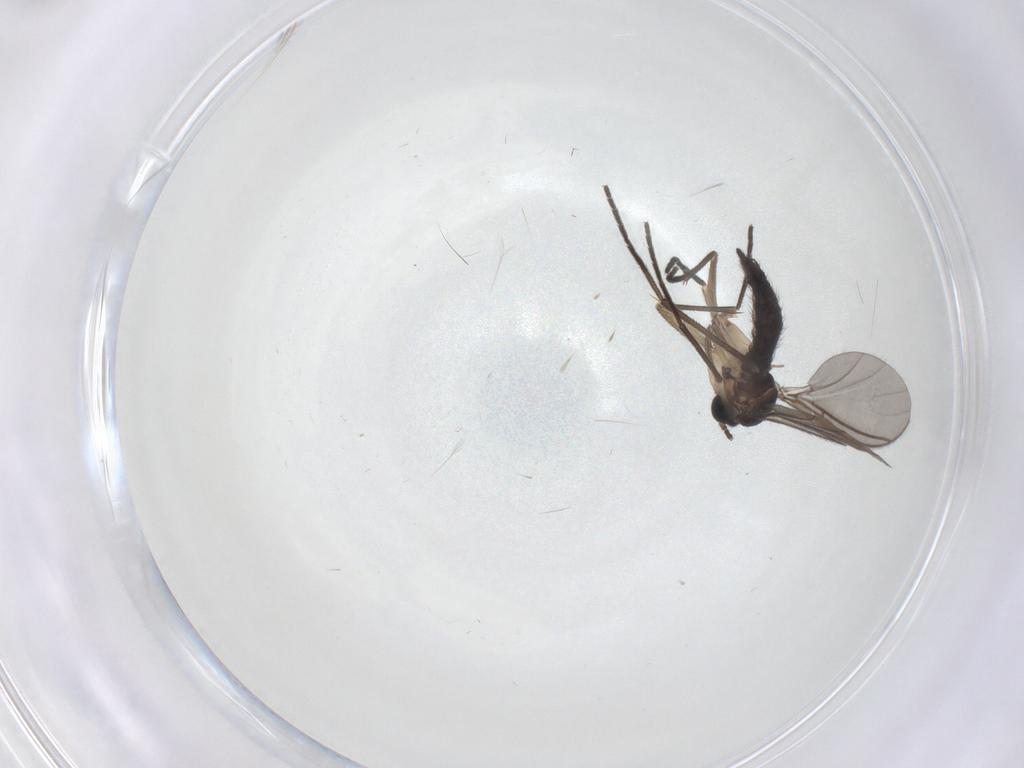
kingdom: Animalia
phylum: Arthropoda
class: Insecta
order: Diptera
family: Sciaridae
